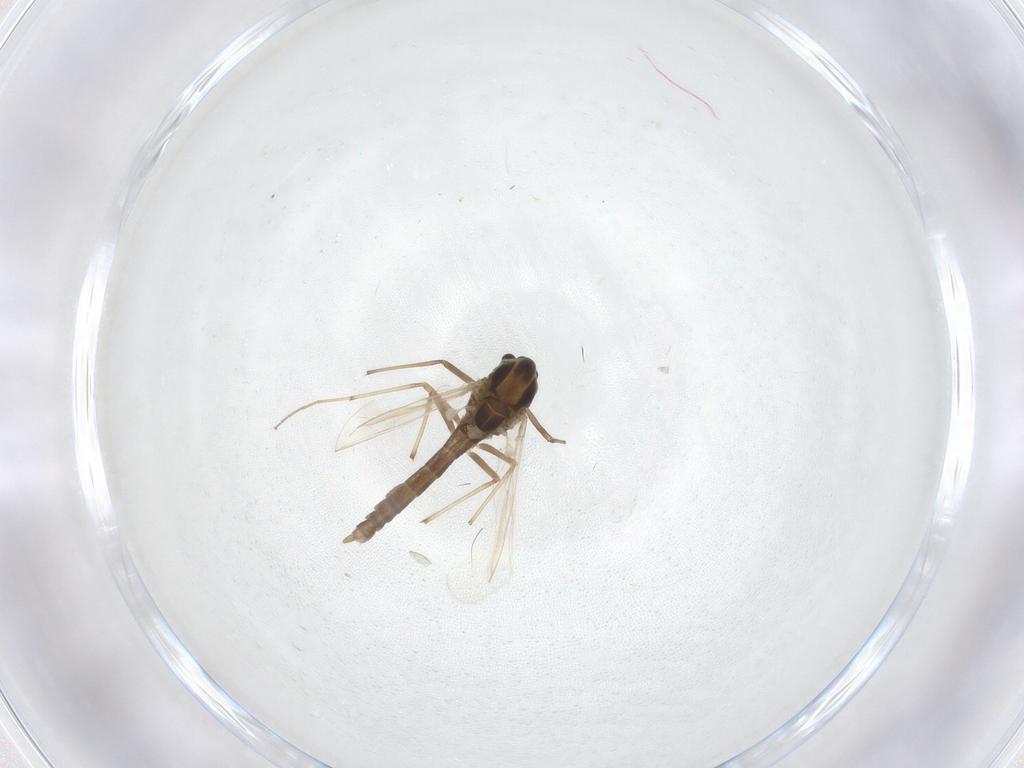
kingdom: Animalia
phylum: Arthropoda
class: Insecta
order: Diptera
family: Chironomidae
